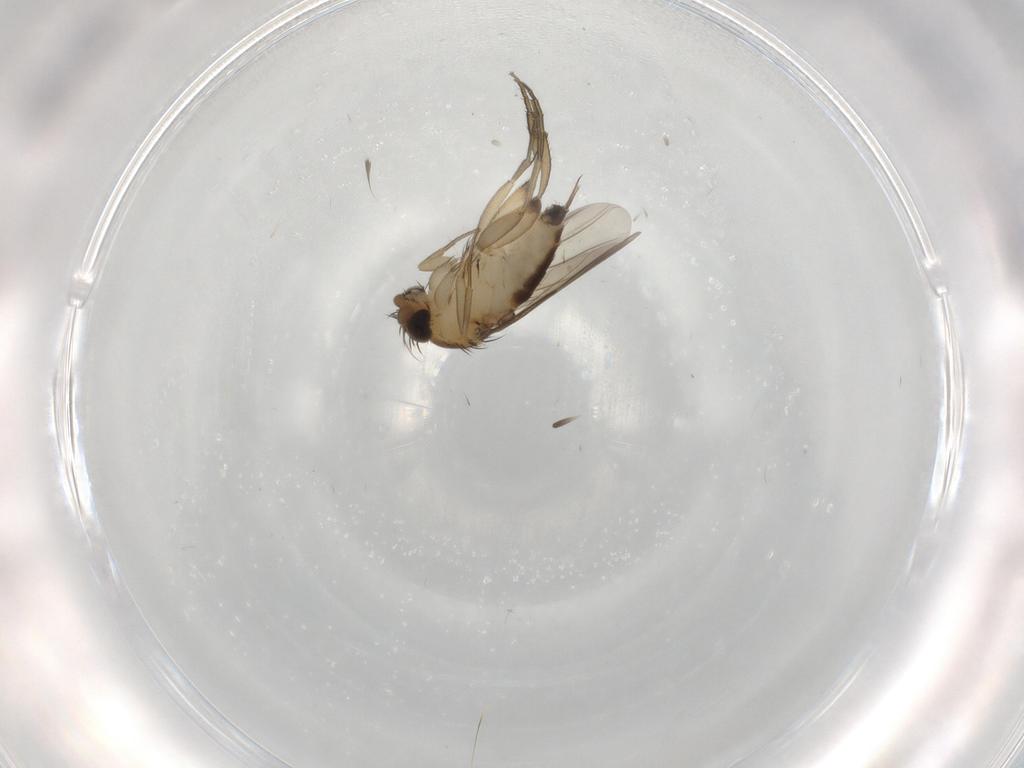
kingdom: Animalia
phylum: Arthropoda
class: Insecta
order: Diptera
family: Phoridae
